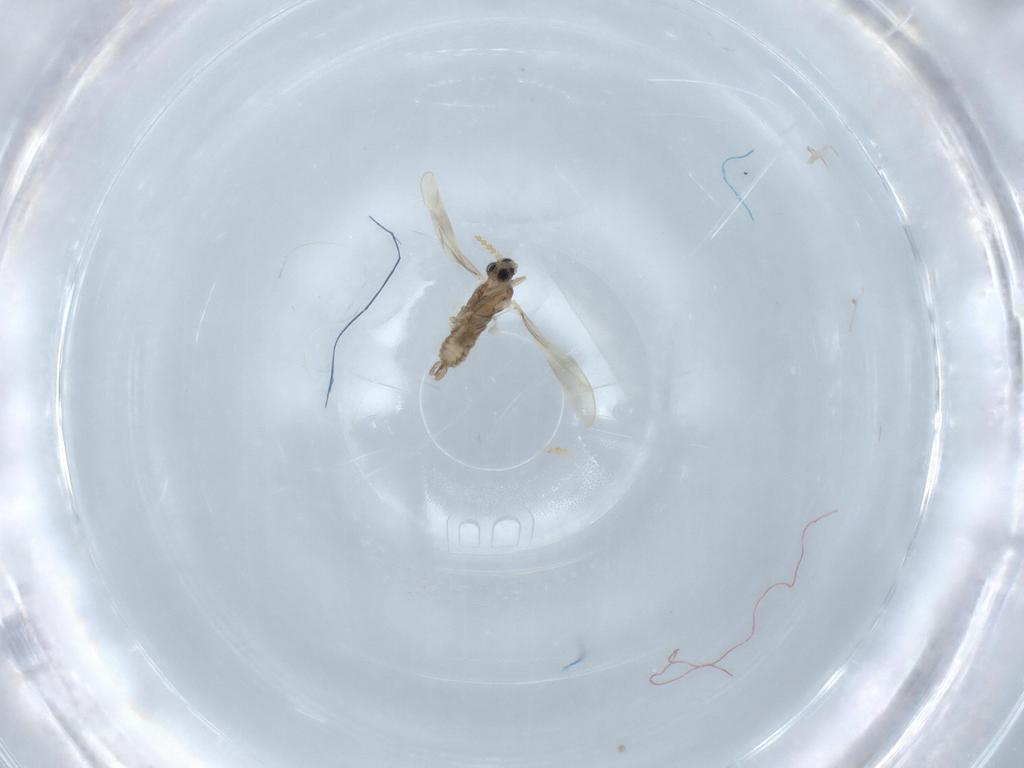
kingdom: Animalia
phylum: Arthropoda
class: Insecta
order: Diptera
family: Cecidomyiidae
